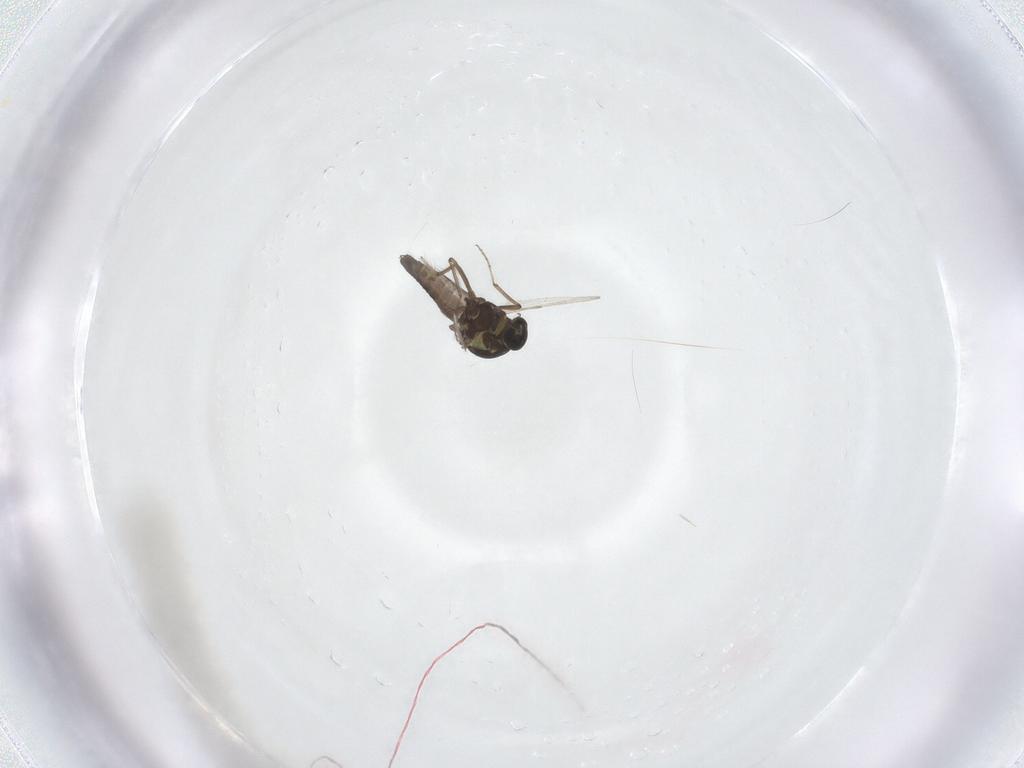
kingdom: Animalia
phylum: Arthropoda
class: Insecta
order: Diptera
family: Ceratopogonidae
